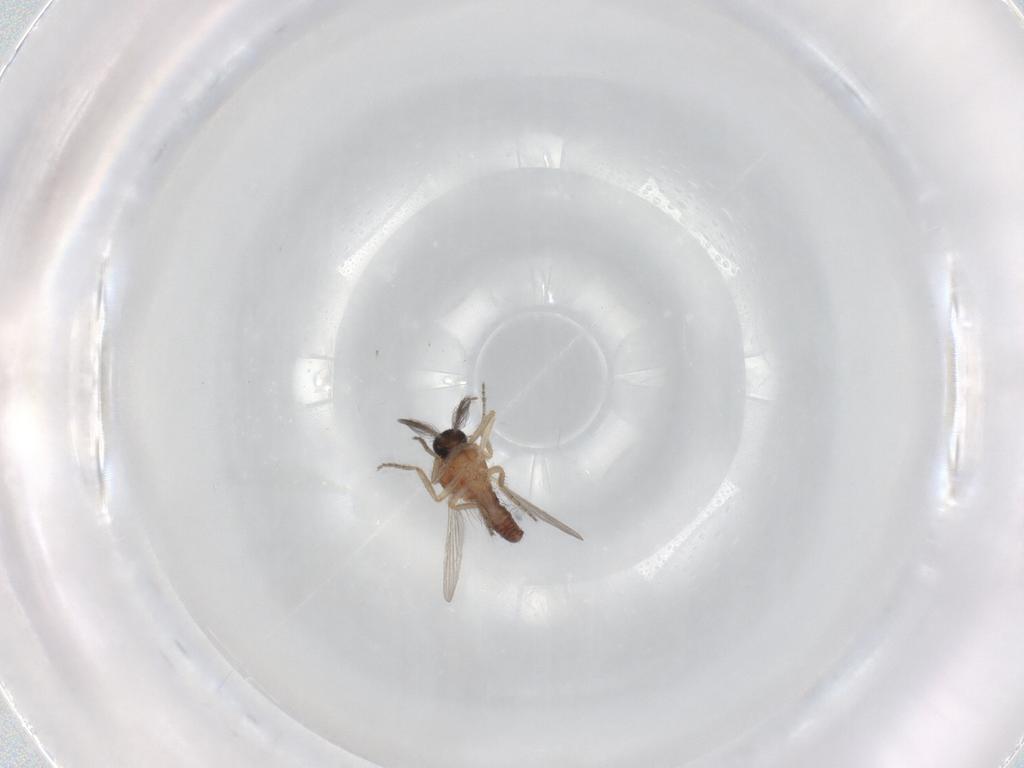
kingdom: Animalia
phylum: Arthropoda
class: Insecta
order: Diptera
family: Ceratopogonidae
